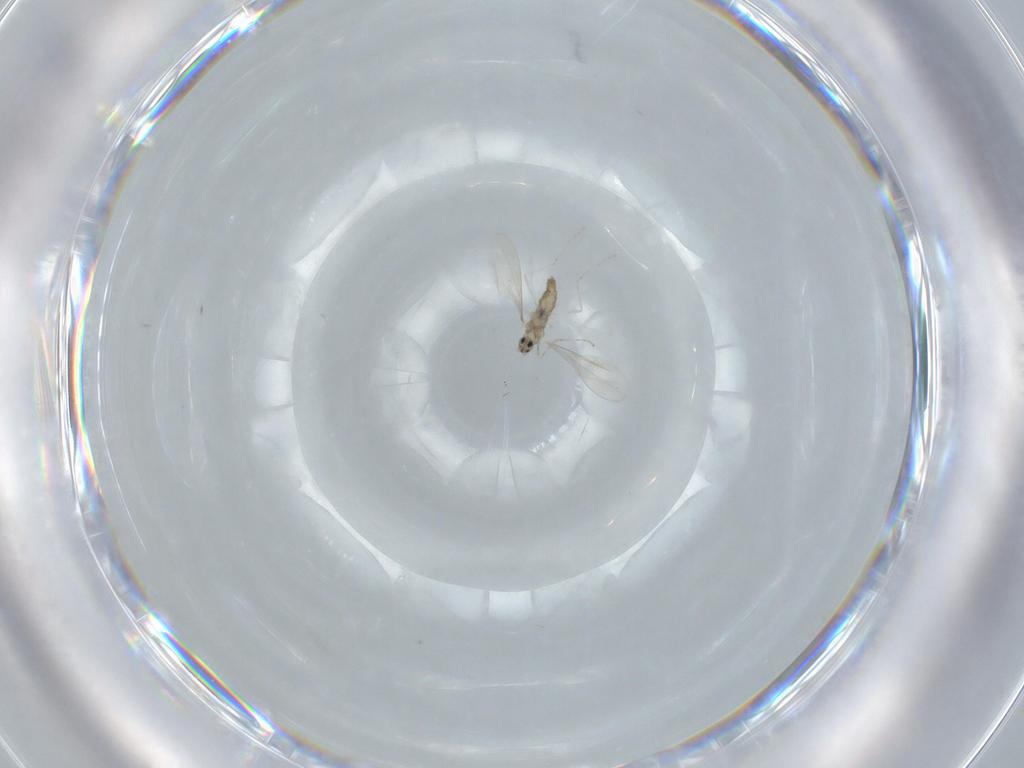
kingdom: Animalia
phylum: Arthropoda
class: Insecta
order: Diptera
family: Cecidomyiidae
